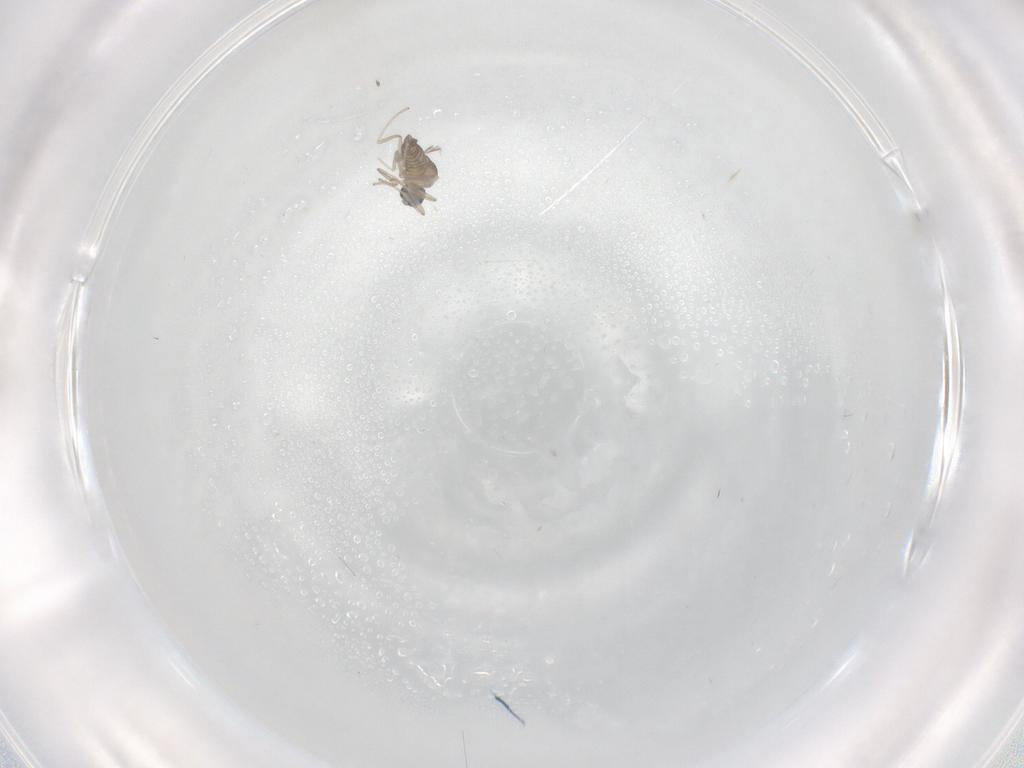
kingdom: Animalia
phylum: Arthropoda
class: Insecta
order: Diptera
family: Cecidomyiidae
